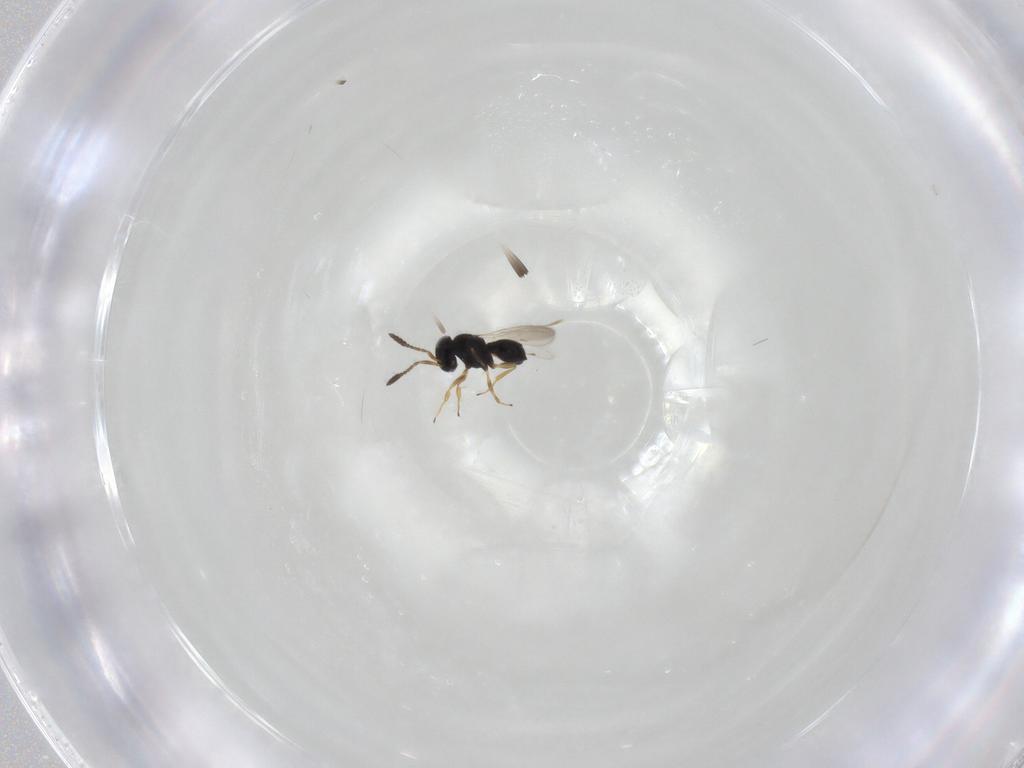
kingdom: Animalia
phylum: Arthropoda
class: Insecta
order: Hymenoptera
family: Scelionidae
